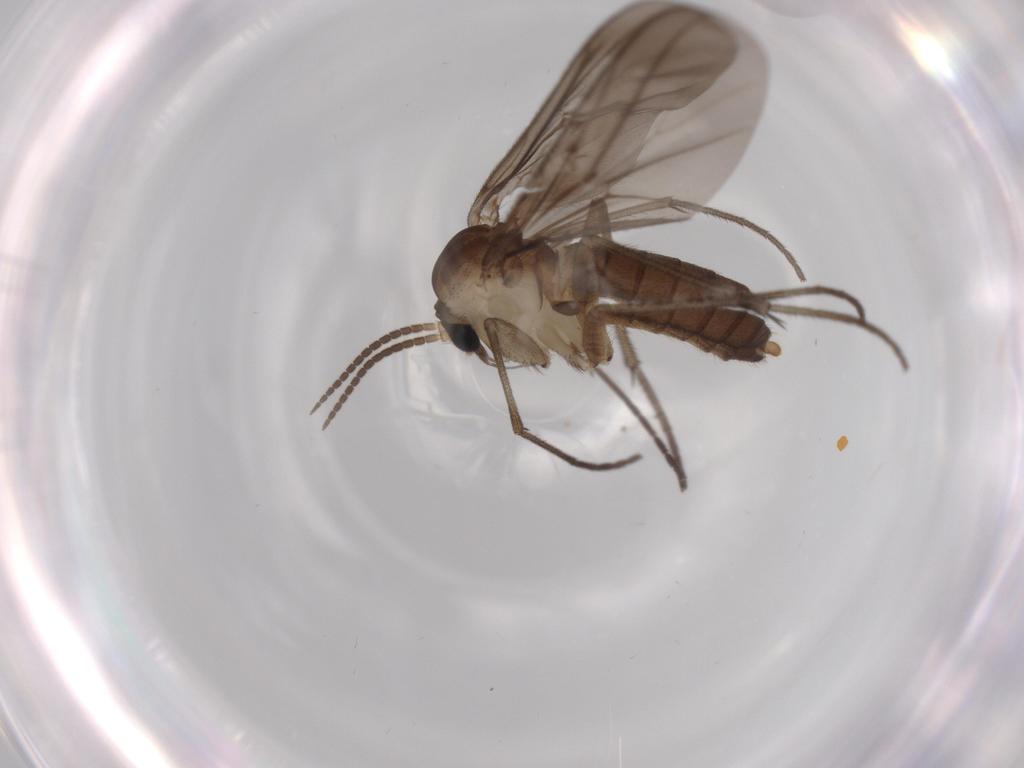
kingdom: Animalia
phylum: Arthropoda
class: Insecta
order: Diptera
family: Diadocidiidae
